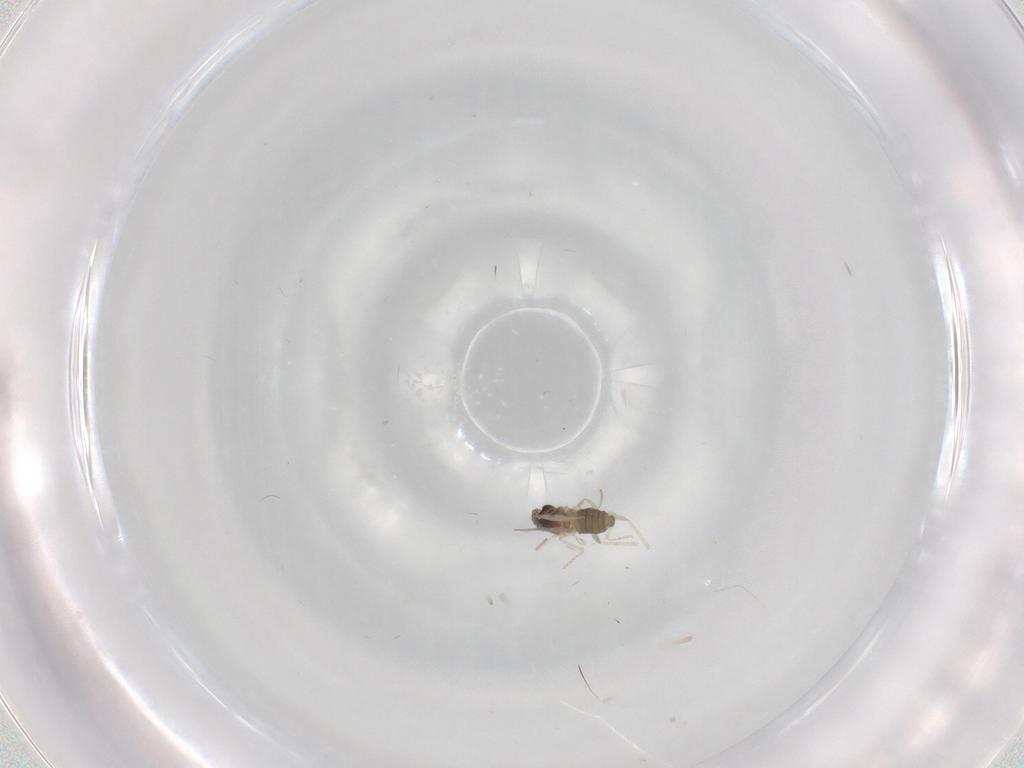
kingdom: Animalia
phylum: Arthropoda
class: Insecta
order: Diptera
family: Cecidomyiidae
